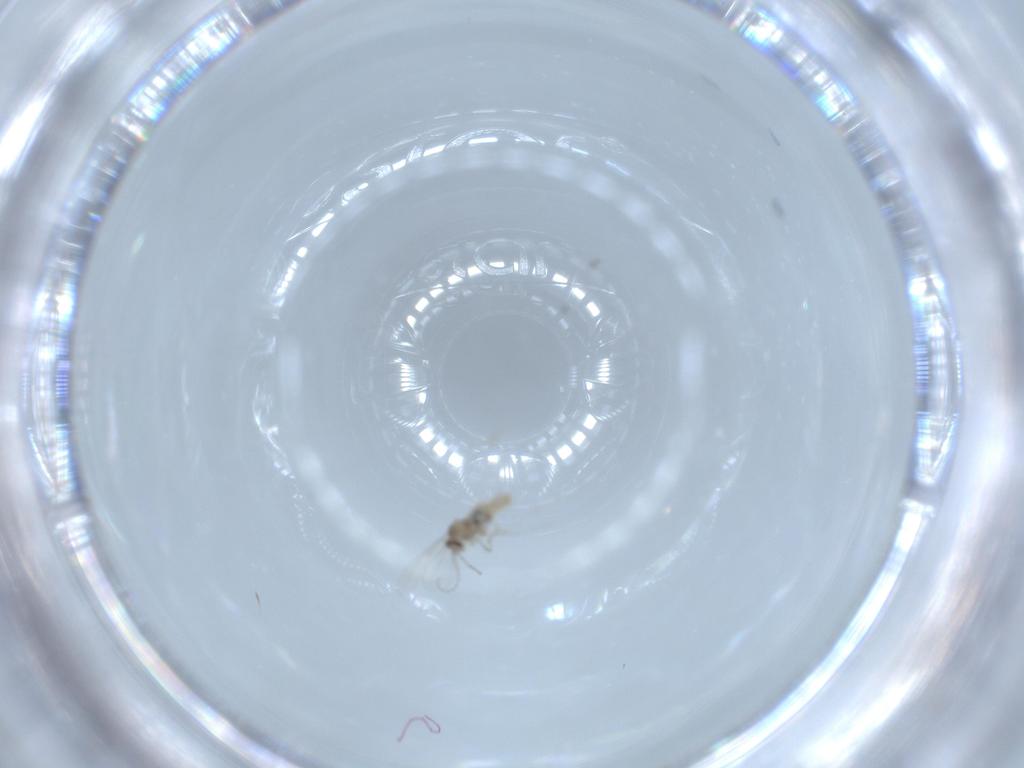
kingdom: Animalia
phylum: Arthropoda
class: Insecta
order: Diptera
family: Cecidomyiidae
